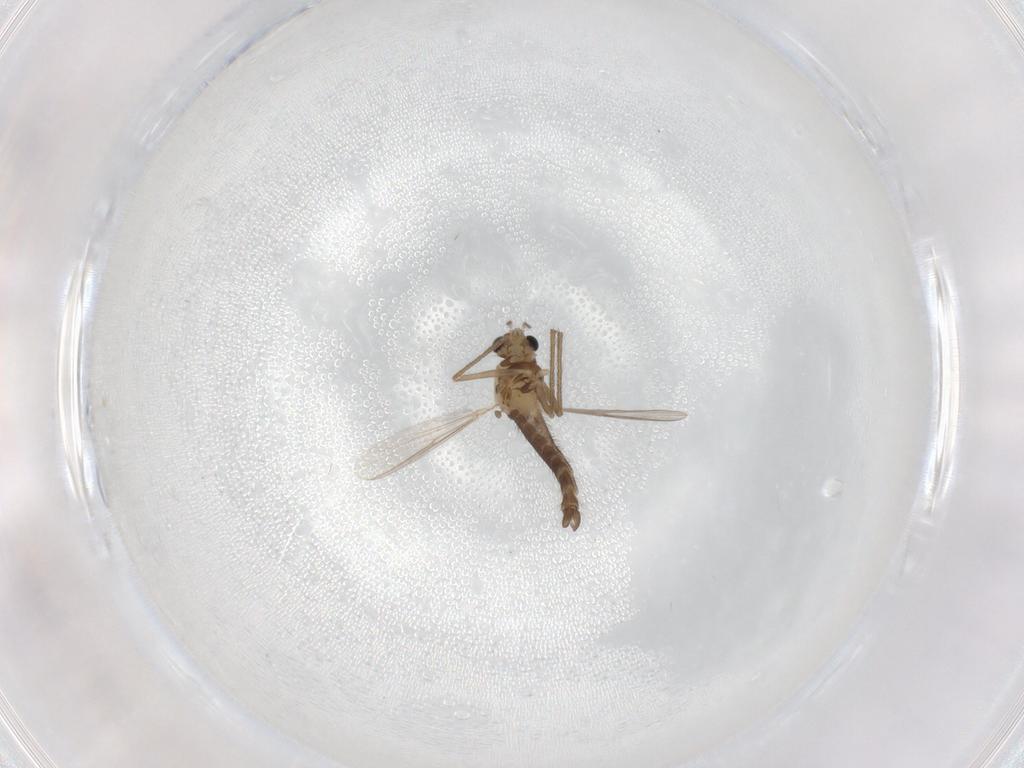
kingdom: Animalia
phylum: Arthropoda
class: Insecta
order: Diptera
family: Chironomidae
